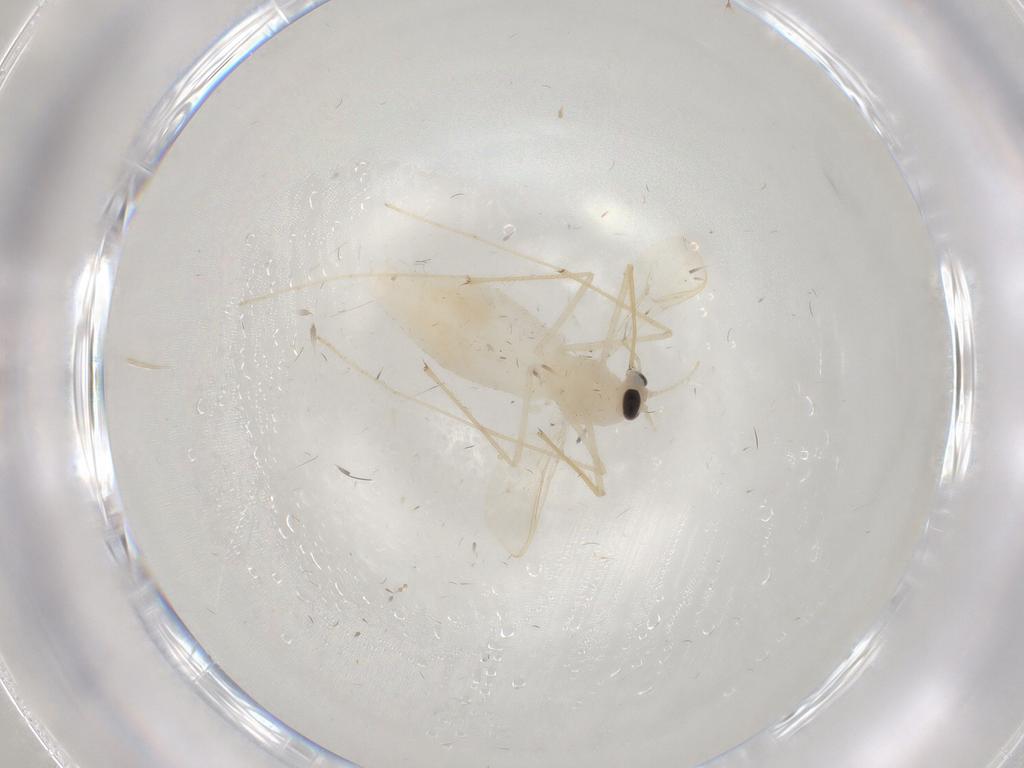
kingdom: Animalia
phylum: Arthropoda
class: Insecta
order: Diptera
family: Chironomidae
